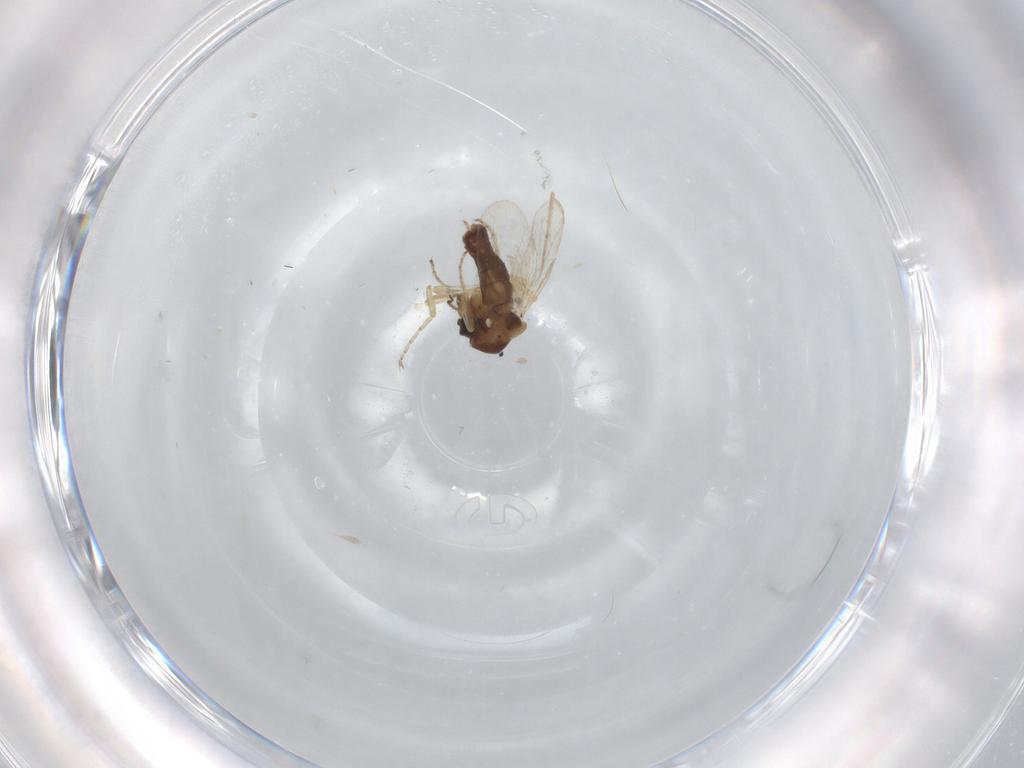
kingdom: Animalia
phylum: Arthropoda
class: Insecta
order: Diptera
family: Ceratopogonidae
